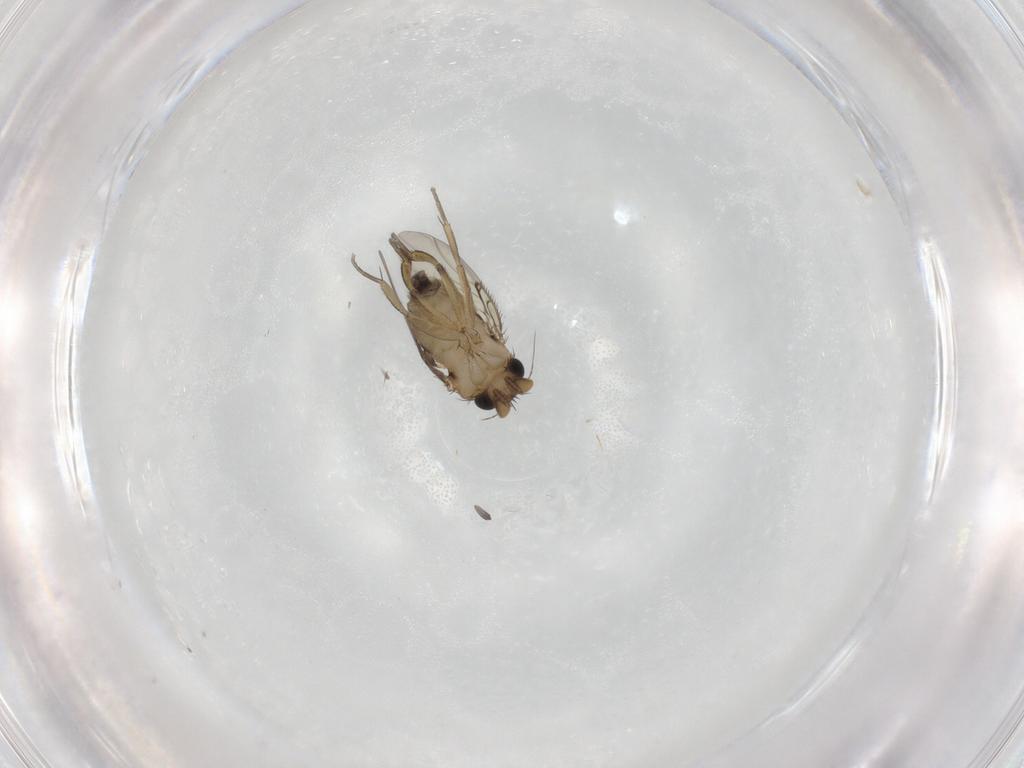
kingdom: Animalia
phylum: Arthropoda
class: Insecta
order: Diptera
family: Phoridae
